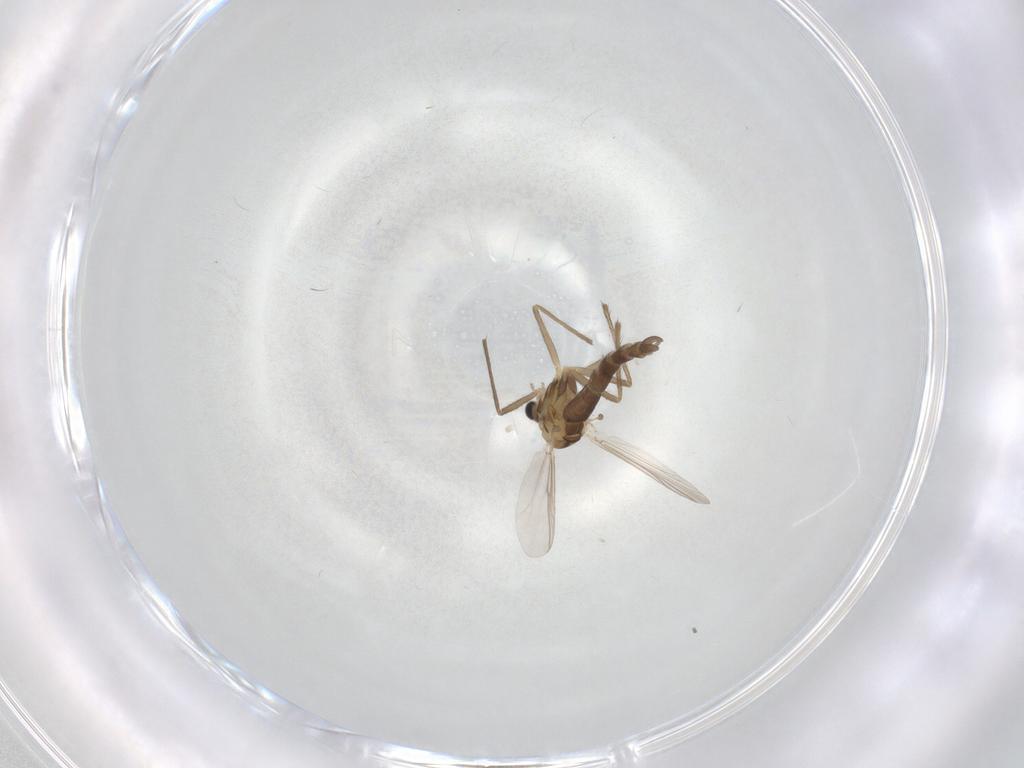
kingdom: Animalia
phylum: Arthropoda
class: Insecta
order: Diptera
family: Chironomidae
